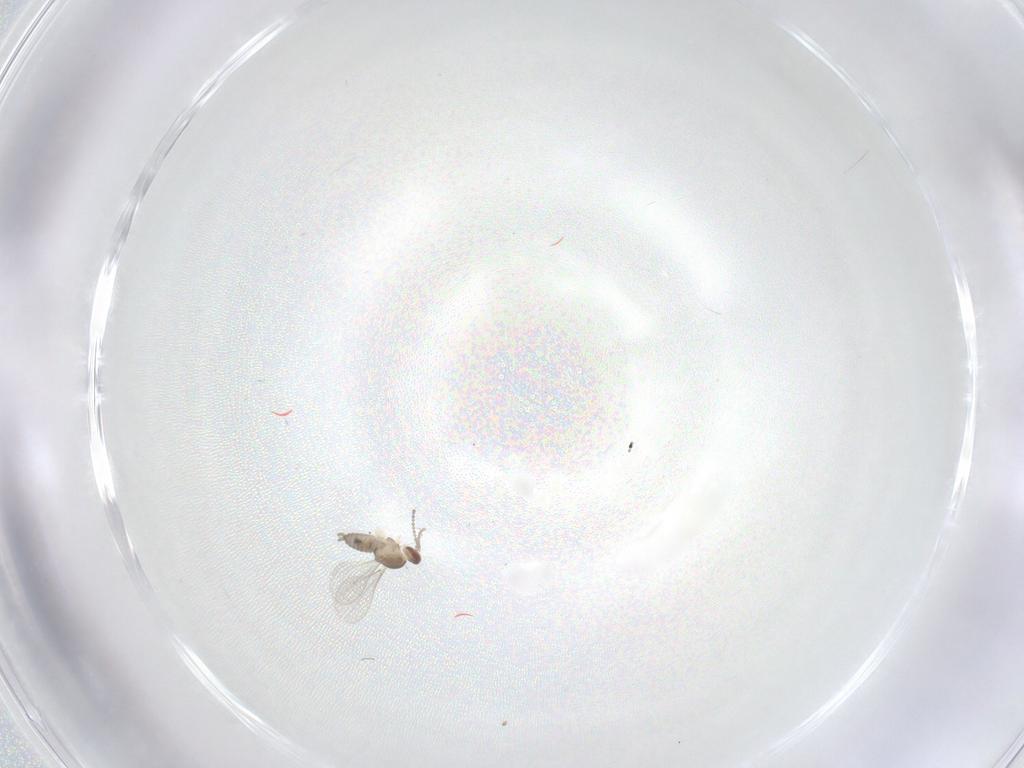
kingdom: Animalia
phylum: Arthropoda
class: Insecta
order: Diptera
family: Cecidomyiidae
